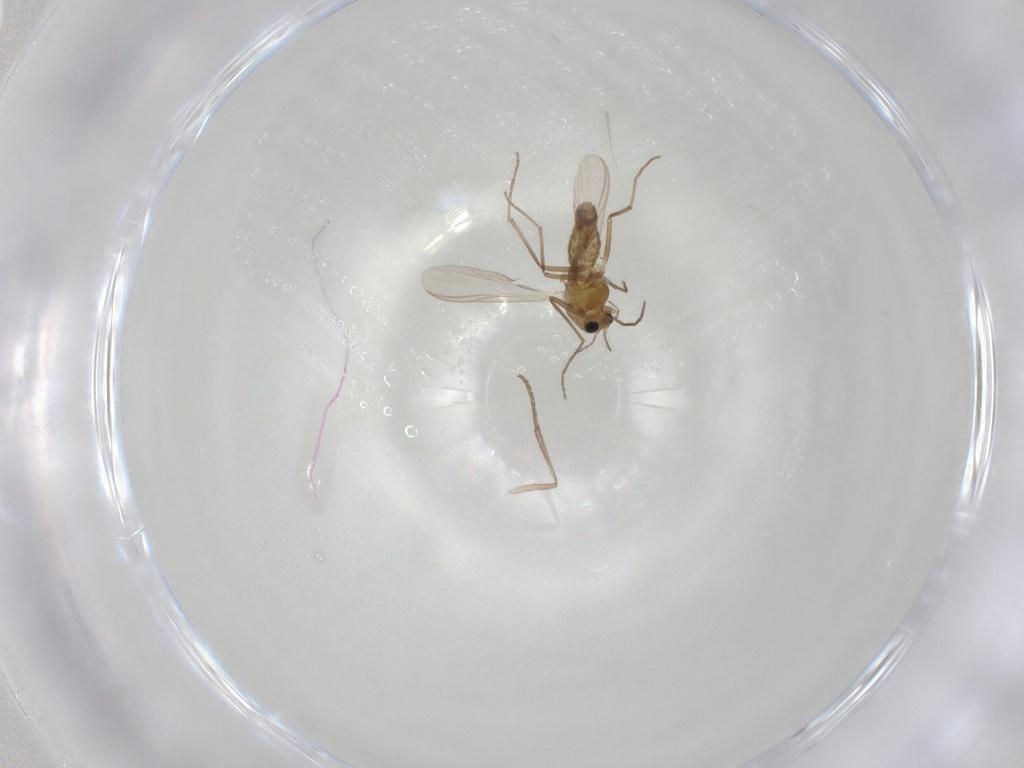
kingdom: Animalia
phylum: Arthropoda
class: Insecta
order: Diptera
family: Psychodidae
